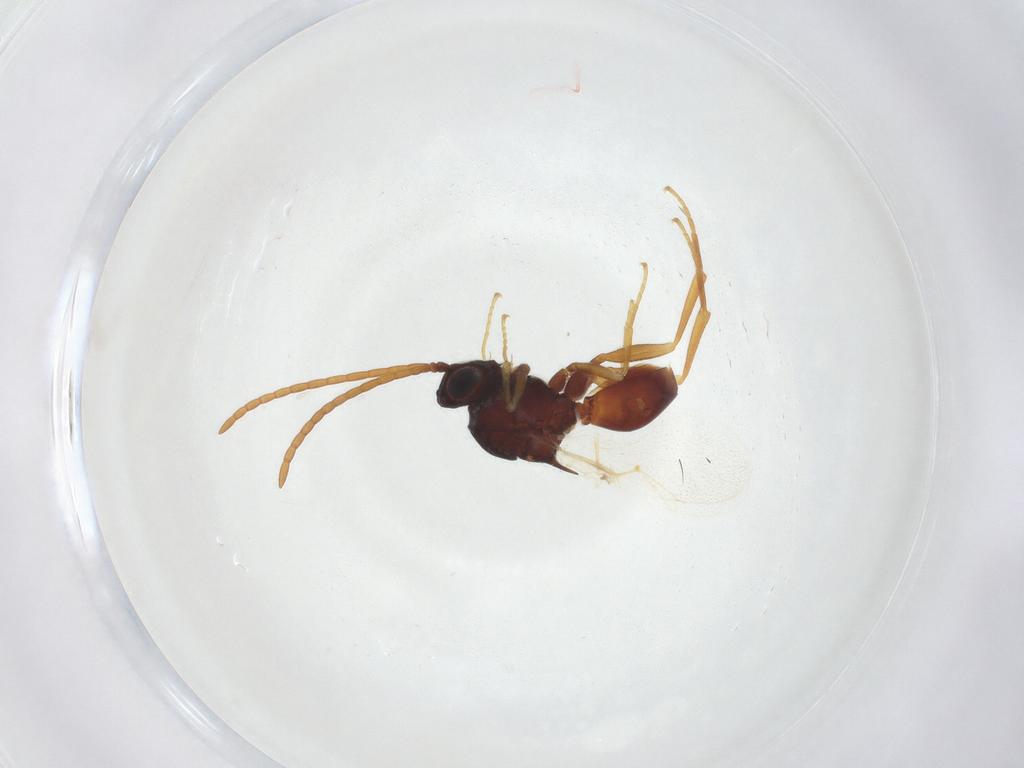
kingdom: Animalia
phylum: Arthropoda
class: Insecta
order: Hymenoptera
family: Figitidae
